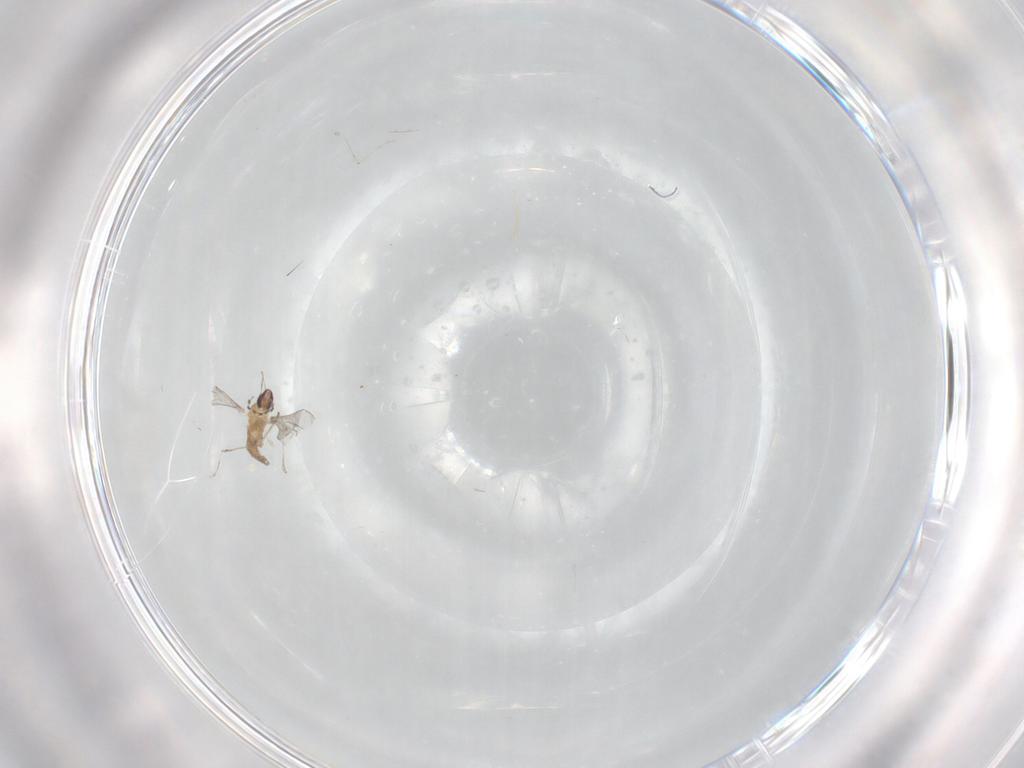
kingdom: Animalia
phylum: Arthropoda
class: Insecta
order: Diptera
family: Cecidomyiidae
